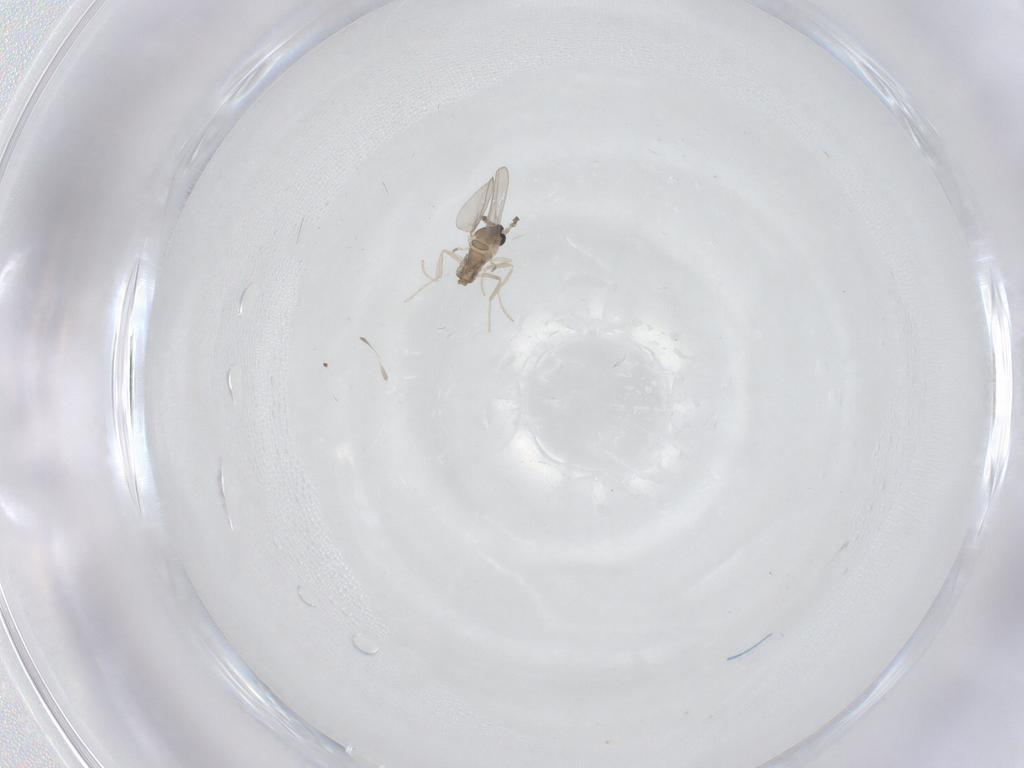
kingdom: Animalia
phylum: Arthropoda
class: Insecta
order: Diptera
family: Cecidomyiidae
